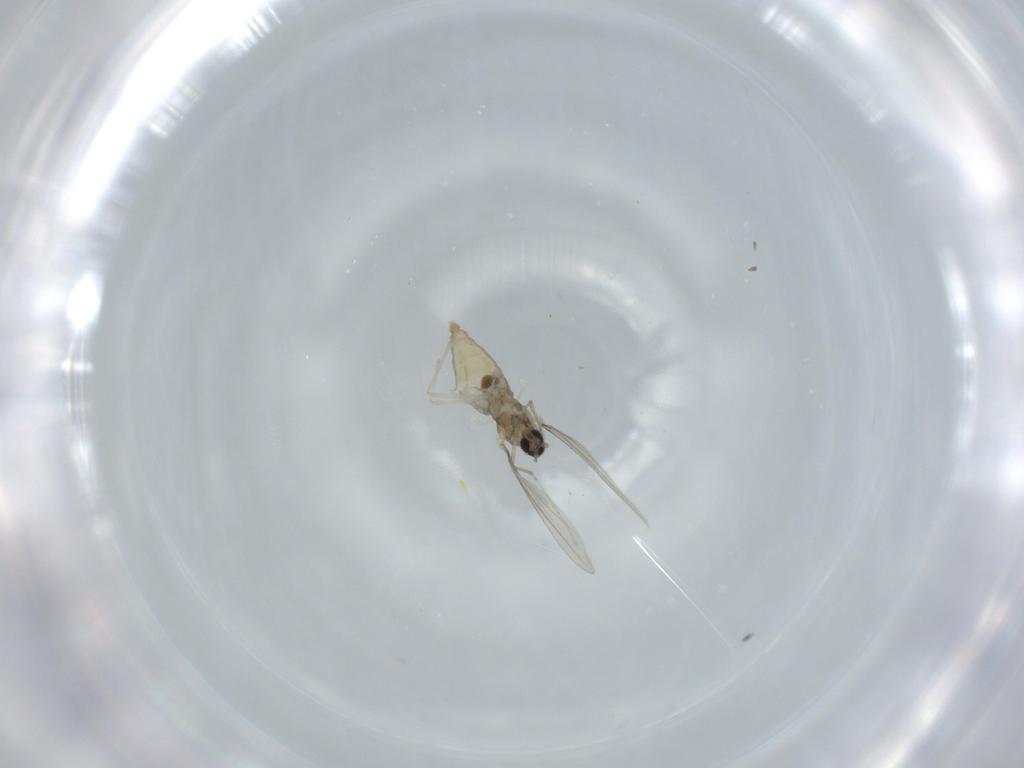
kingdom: Animalia
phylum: Arthropoda
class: Insecta
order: Diptera
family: Cecidomyiidae
